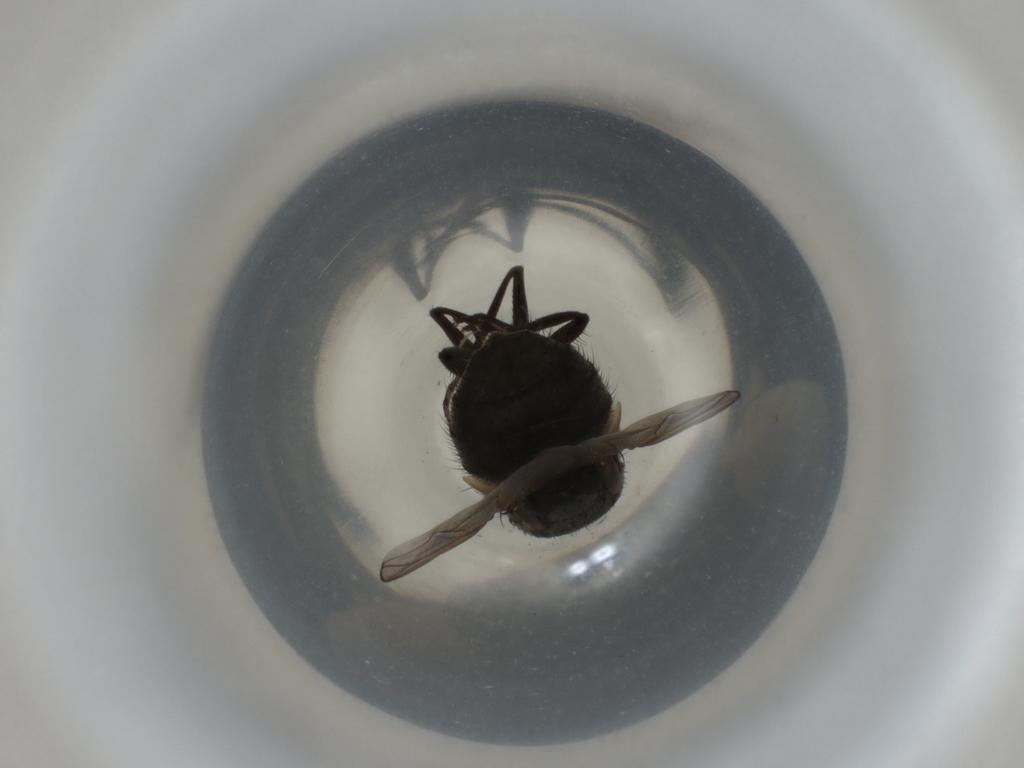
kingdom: Animalia
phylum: Arthropoda
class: Insecta
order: Diptera
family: Muscidae
